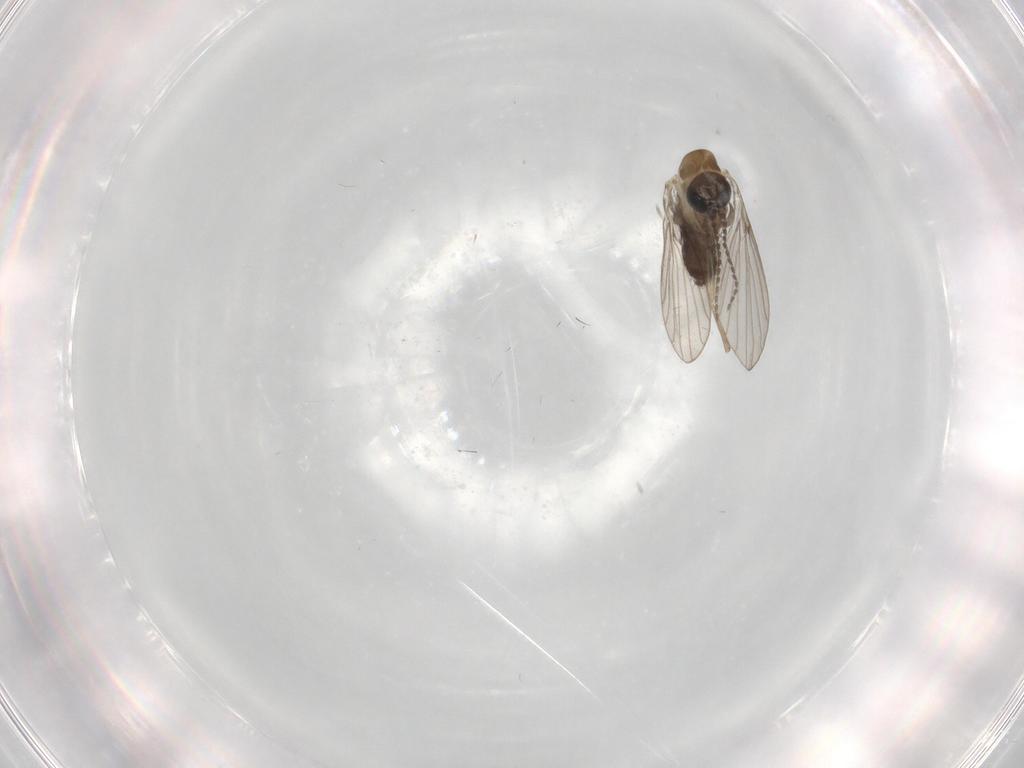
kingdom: Animalia
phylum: Arthropoda
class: Insecta
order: Diptera
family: Psychodidae
